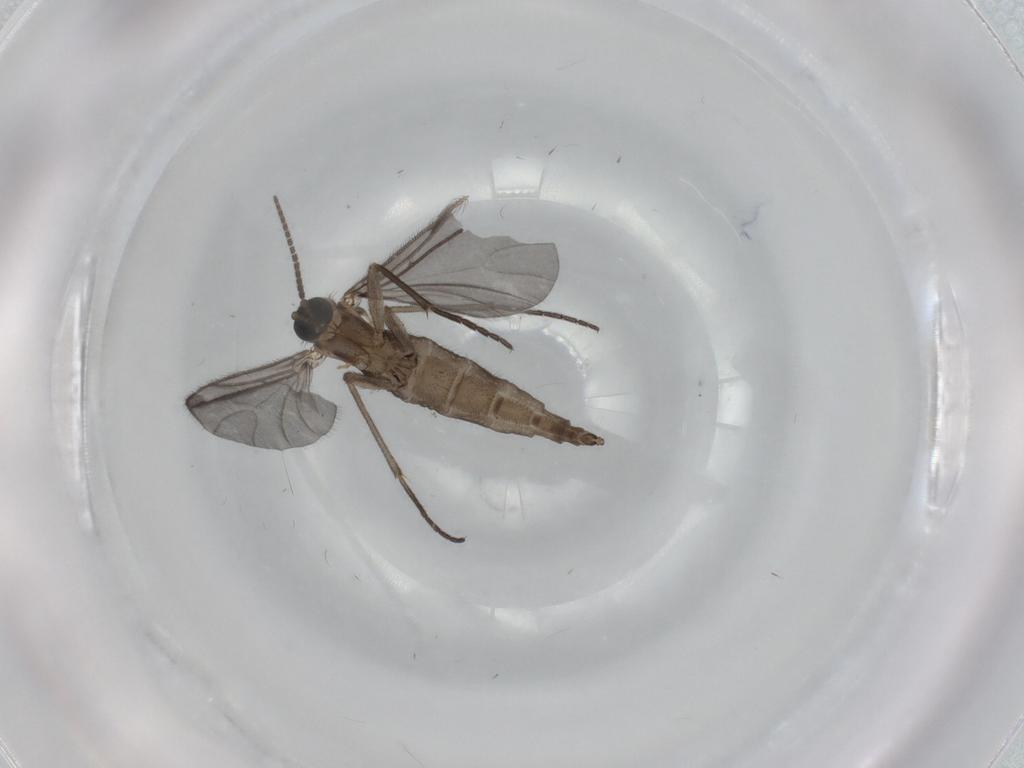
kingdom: Animalia
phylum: Arthropoda
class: Insecta
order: Diptera
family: Sciaridae
